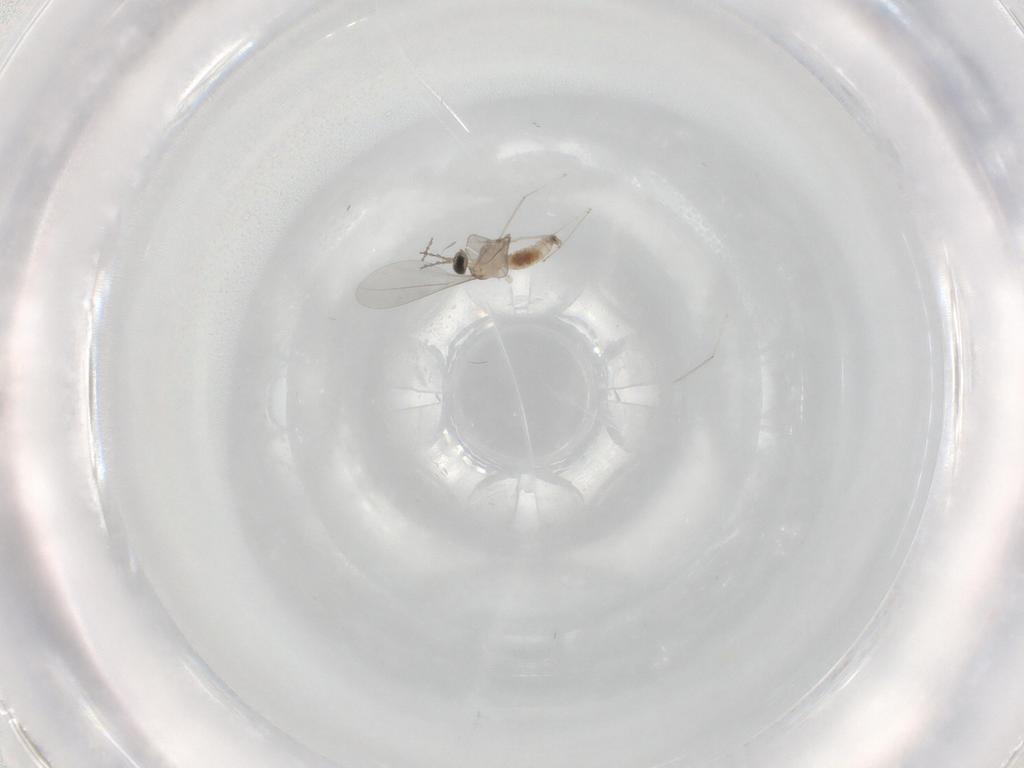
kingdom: Animalia
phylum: Arthropoda
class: Insecta
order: Diptera
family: Cecidomyiidae
